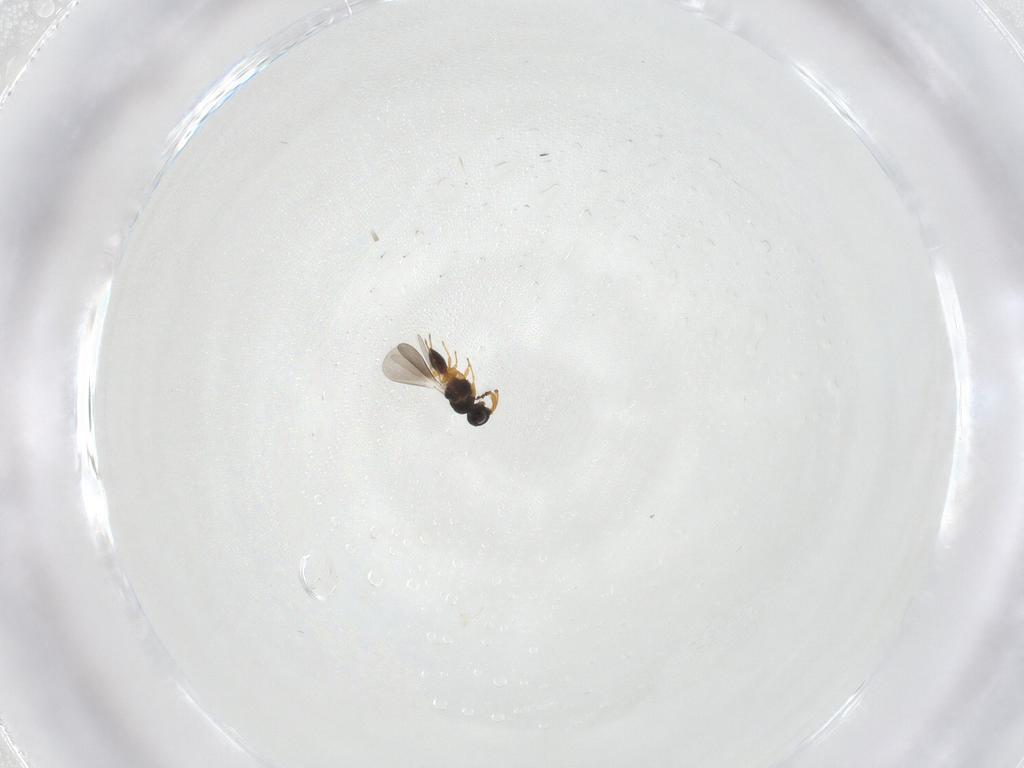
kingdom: Animalia
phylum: Arthropoda
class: Insecta
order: Hymenoptera
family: Platygastridae
